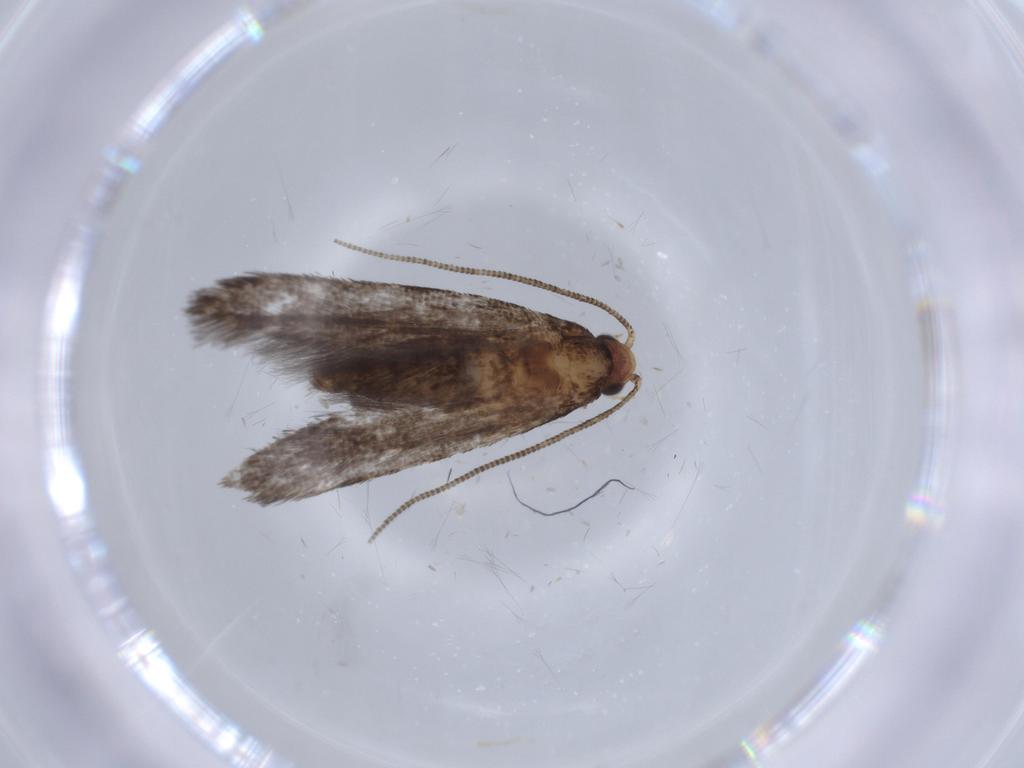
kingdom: Animalia
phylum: Arthropoda
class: Insecta
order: Lepidoptera
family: Tineidae
